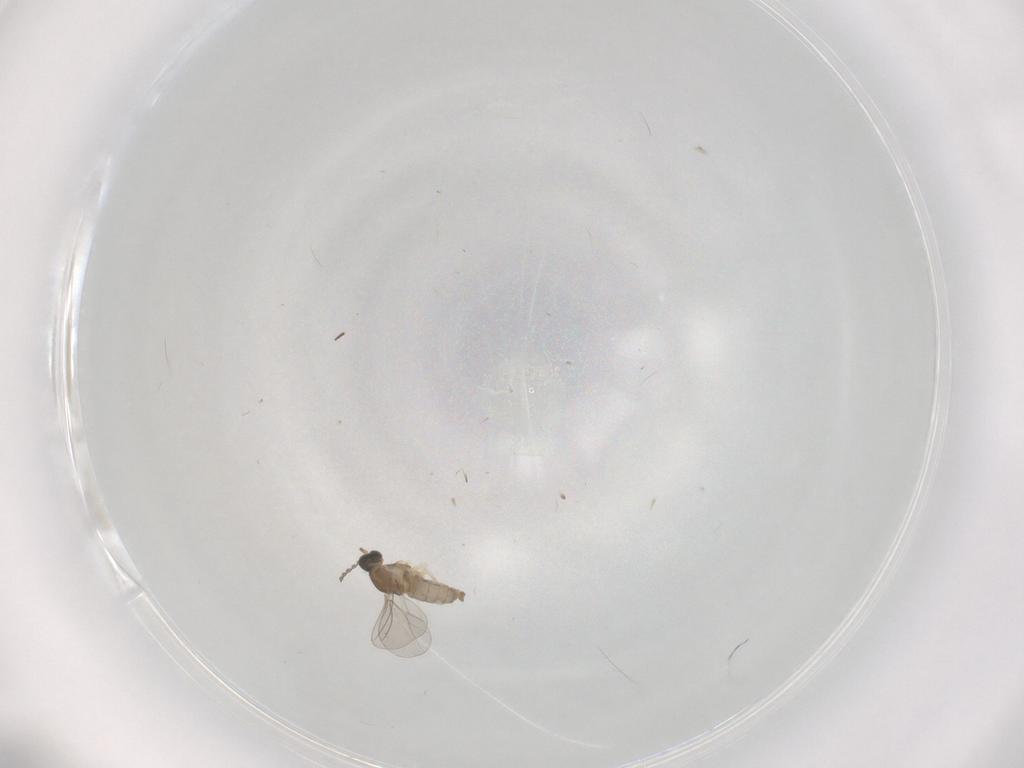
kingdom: Animalia
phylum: Arthropoda
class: Insecta
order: Diptera
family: Cecidomyiidae
